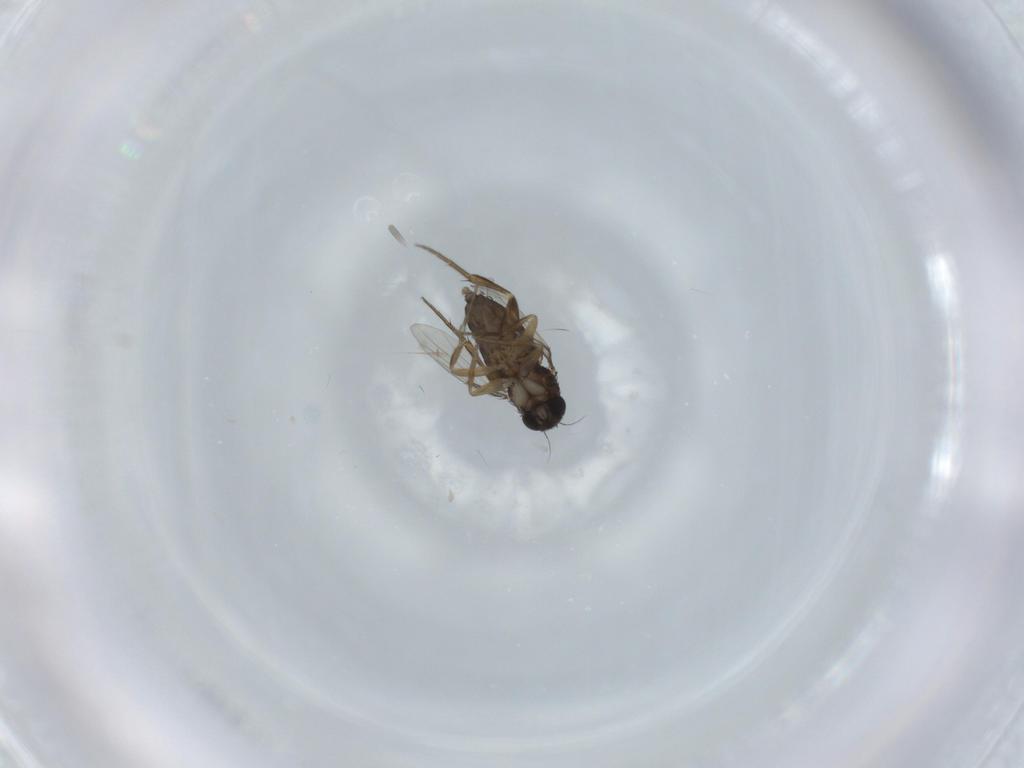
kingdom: Animalia
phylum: Arthropoda
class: Insecta
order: Diptera
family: Phoridae
